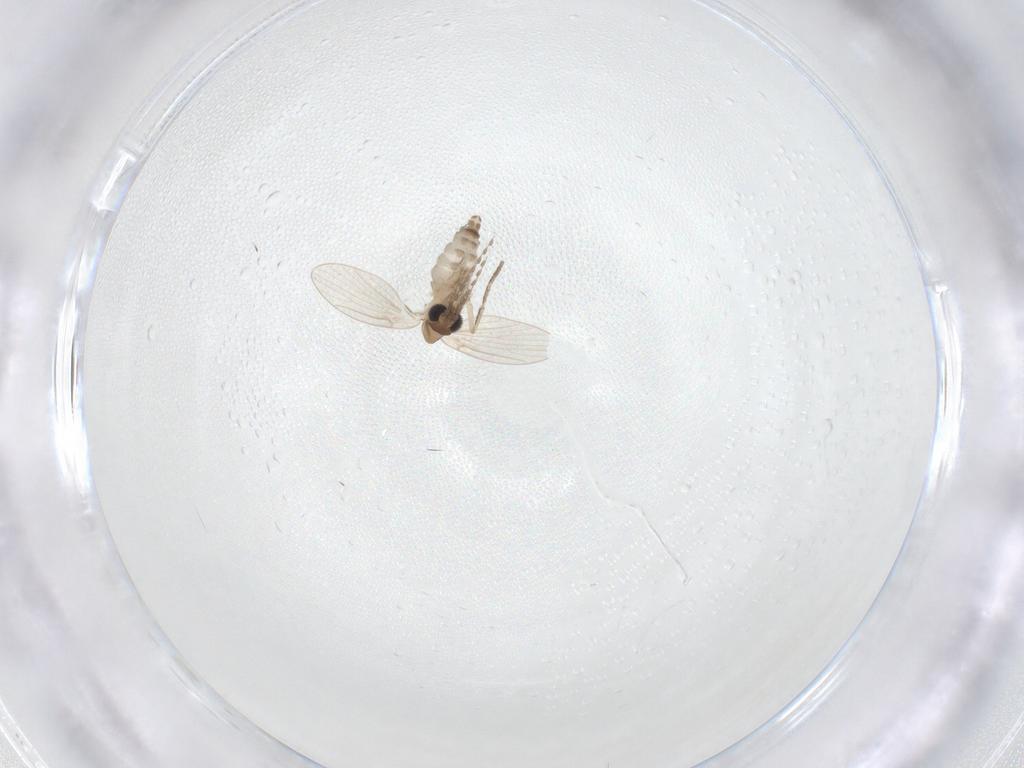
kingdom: Animalia
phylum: Arthropoda
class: Insecta
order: Diptera
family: Psychodidae
